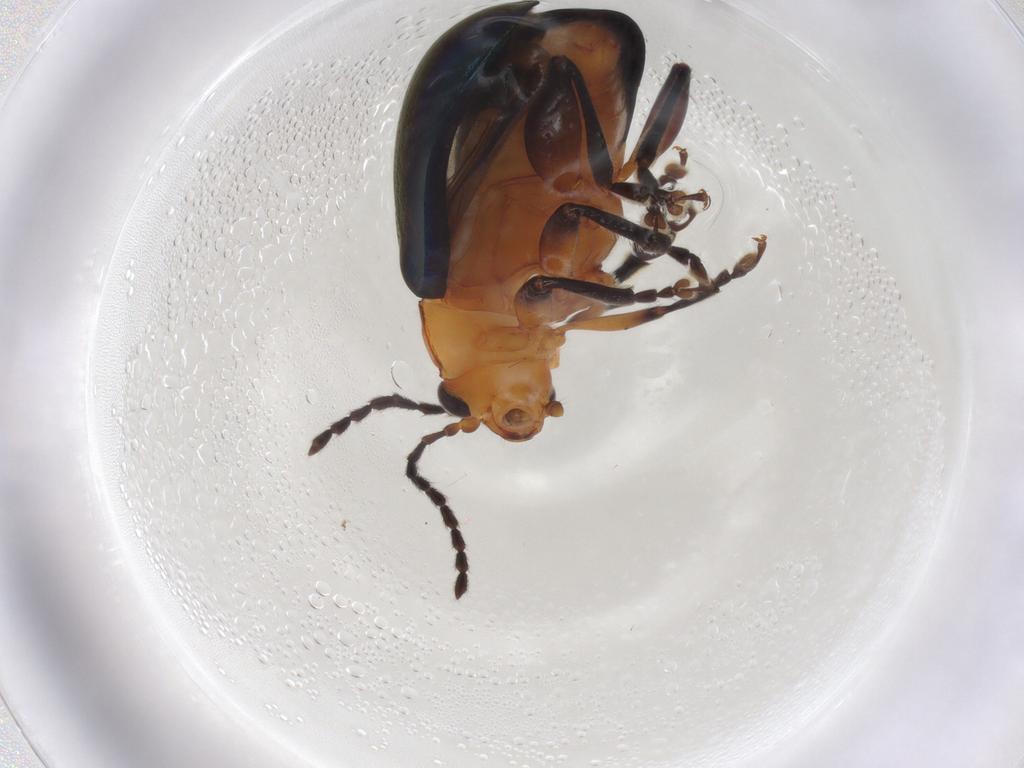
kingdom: Animalia
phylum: Arthropoda
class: Insecta
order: Coleoptera
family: Chrysomelidae
